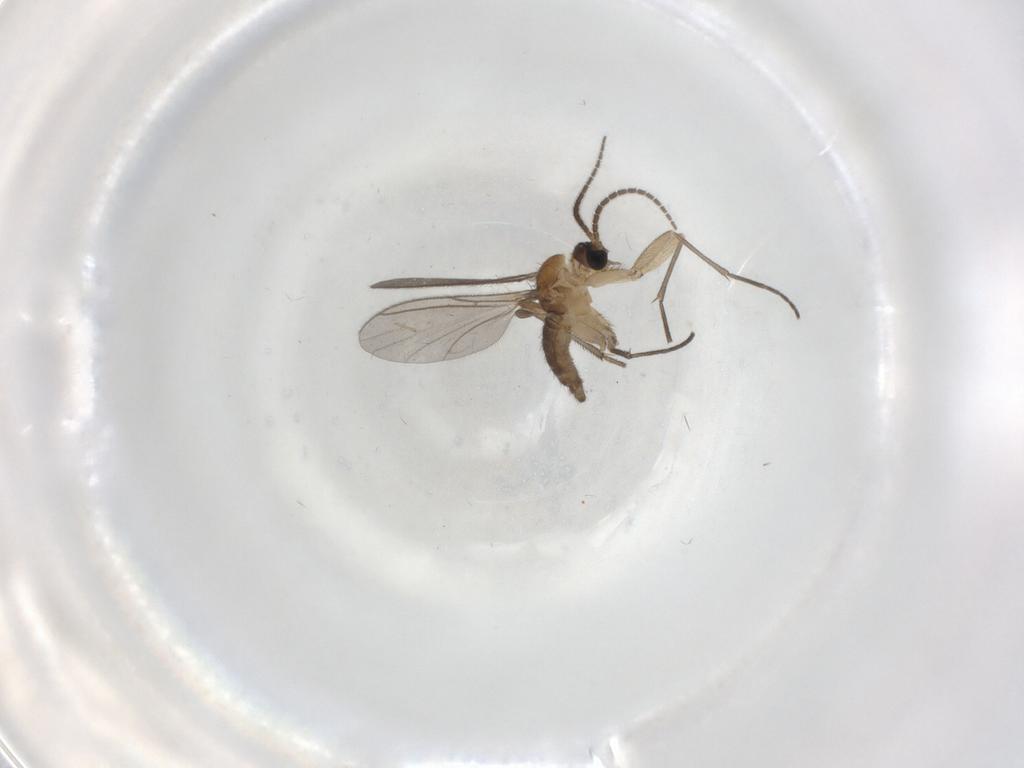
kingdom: Animalia
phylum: Arthropoda
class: Insecta
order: Diptera
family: Sciaridae
